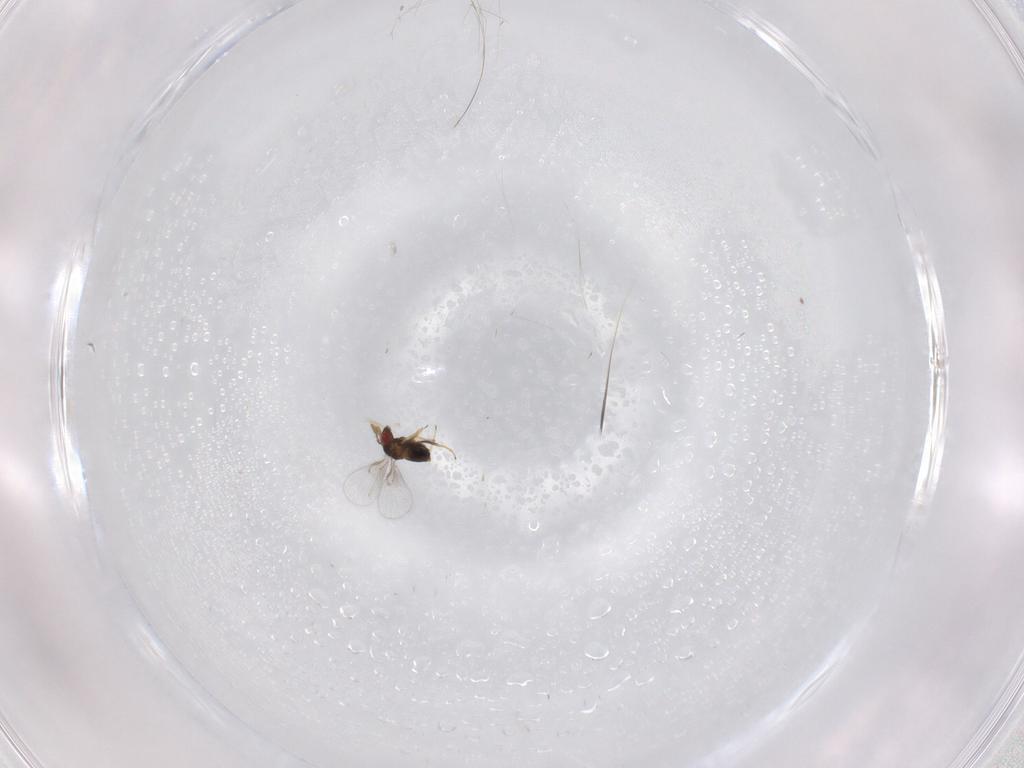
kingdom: Animalia
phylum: Arthropoda
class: Insecta
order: Hymenoptera
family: Trichogrammatidae
